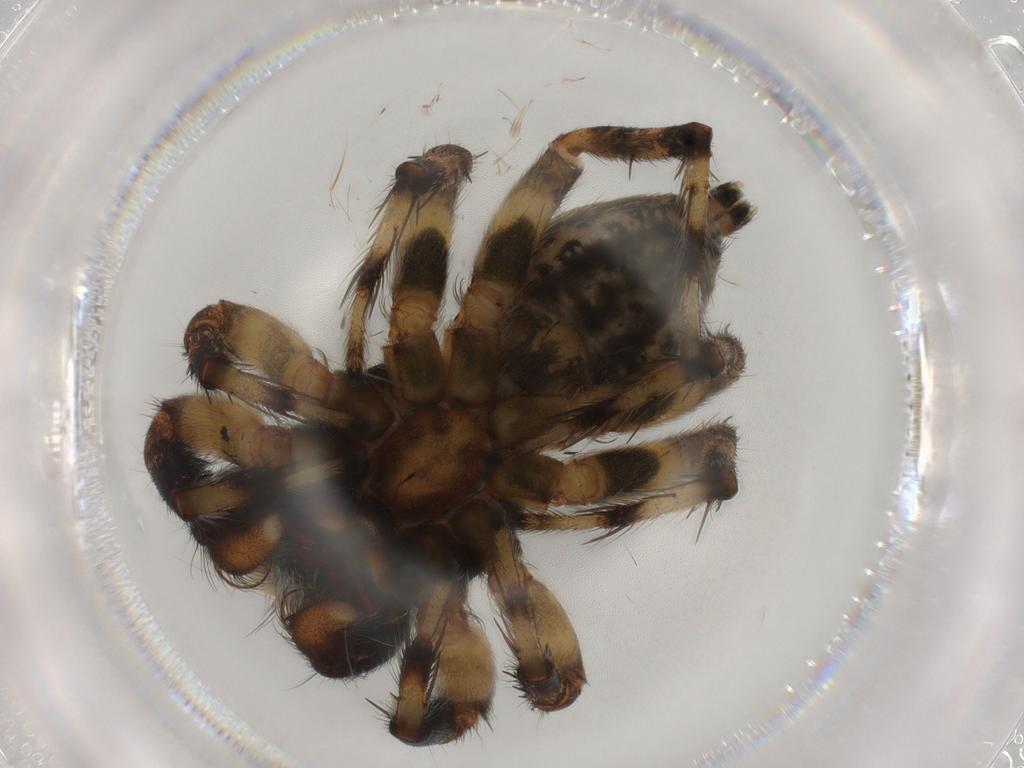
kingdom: Animalia
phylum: Arthropoda
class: Arachnida
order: Araneae
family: Salticidae
